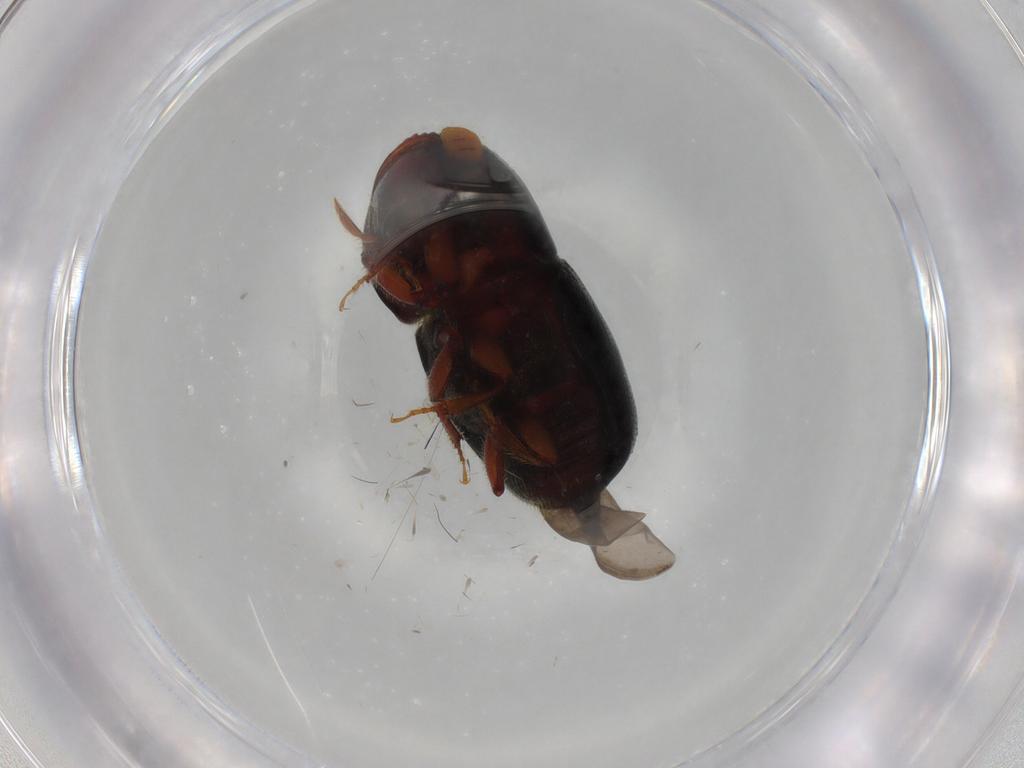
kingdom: Animalia
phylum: Arthropoda
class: Insecta
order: Coleoptera
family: Curculionidae
